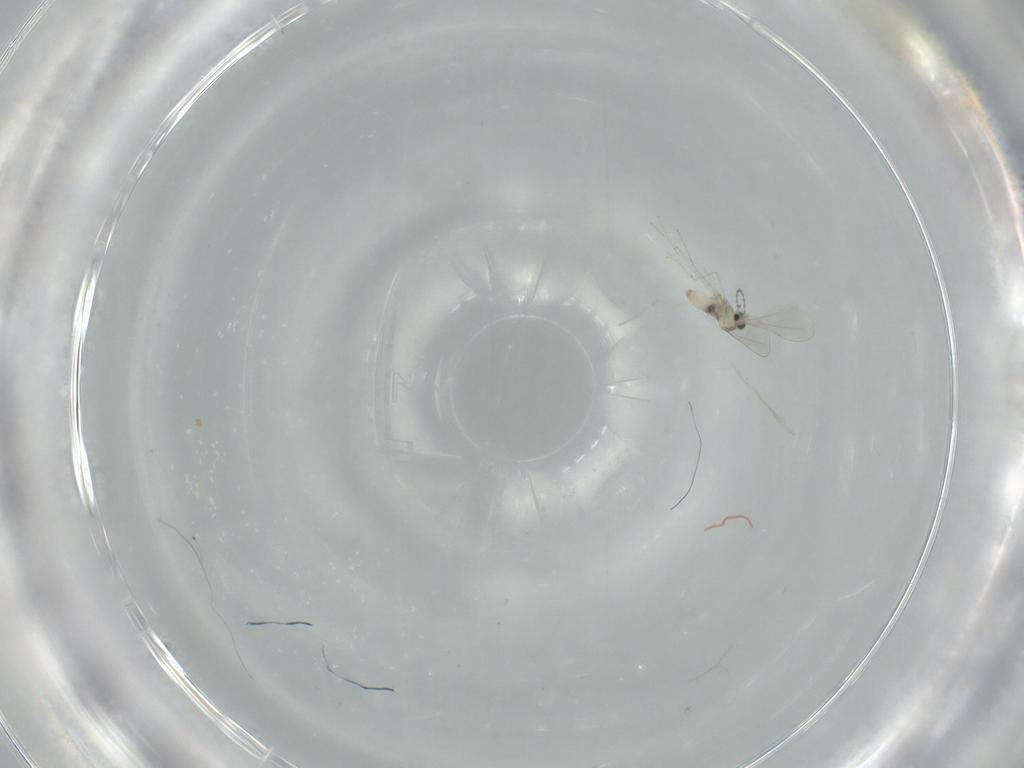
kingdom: Animalia
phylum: Arthropoda
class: Insecta
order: Diptera
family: Cecidomyiidae
